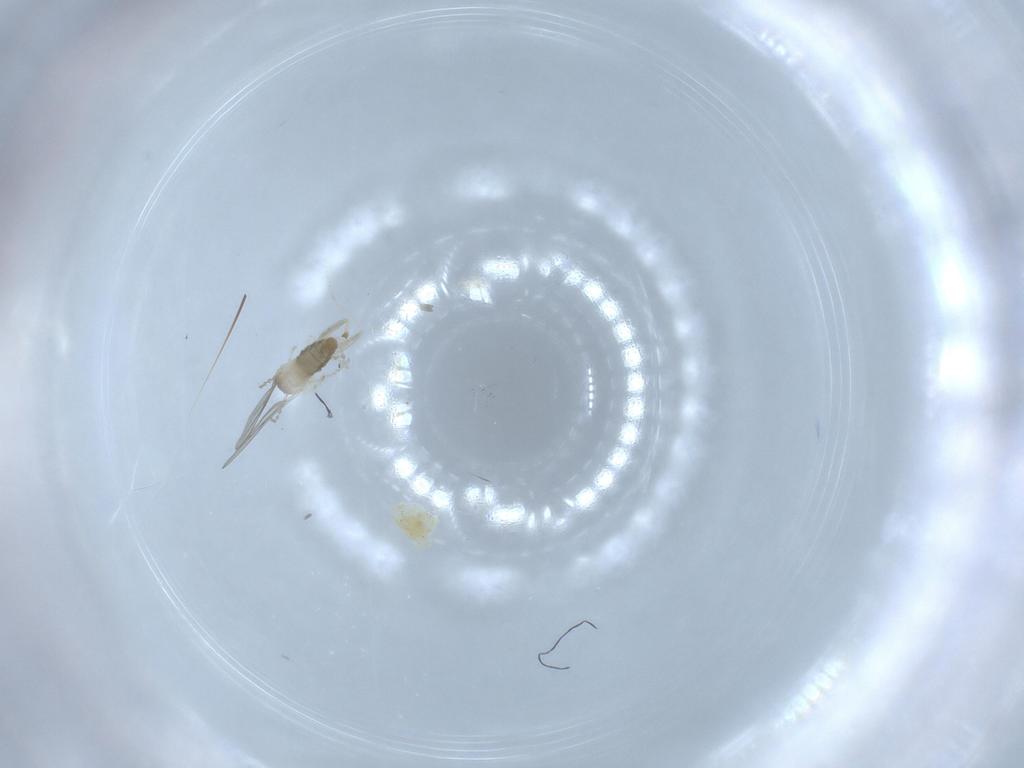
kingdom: Animalia
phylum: Arthropoda
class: Insecta
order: Diptera
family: Cecidomyiidae
